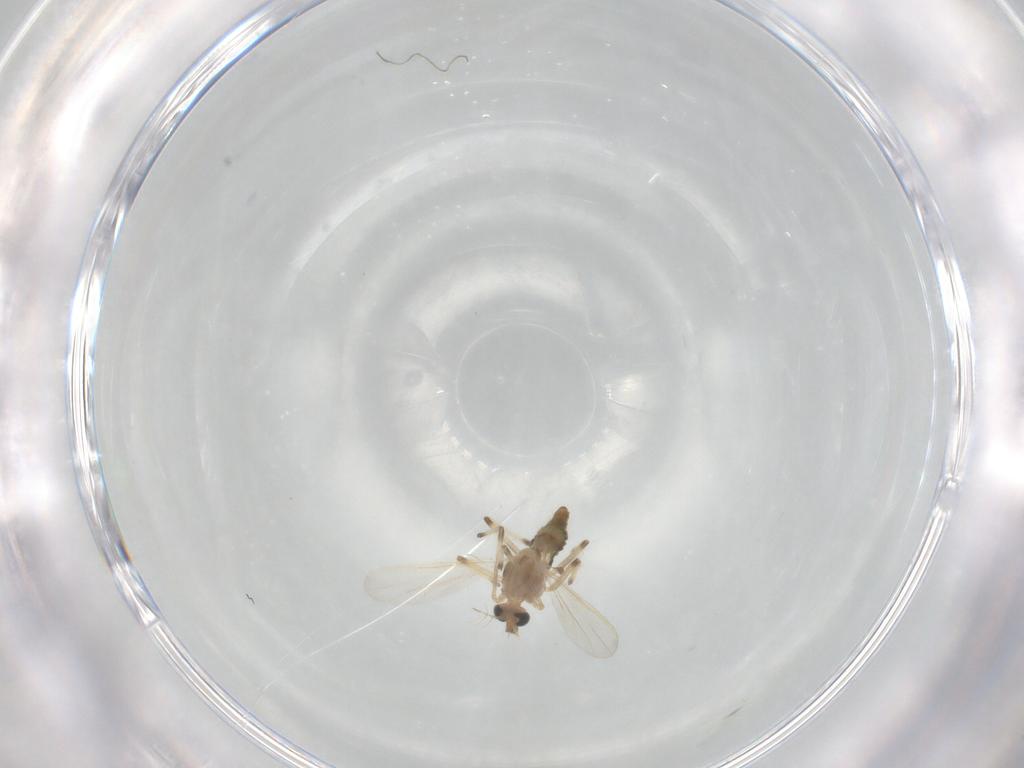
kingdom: Animalia
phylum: Arthropoda
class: Insecta
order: Diptera
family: Chironomidae
